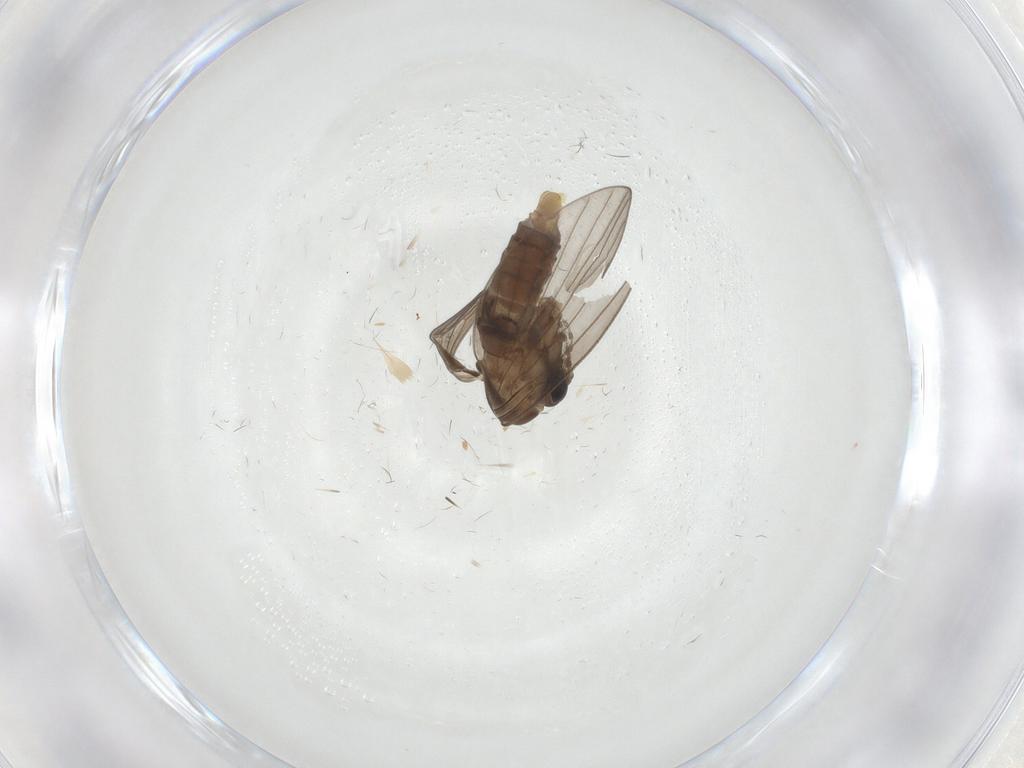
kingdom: Animalia
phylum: Arthropoda
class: Insecta
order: Diptera
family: Psychodidae
